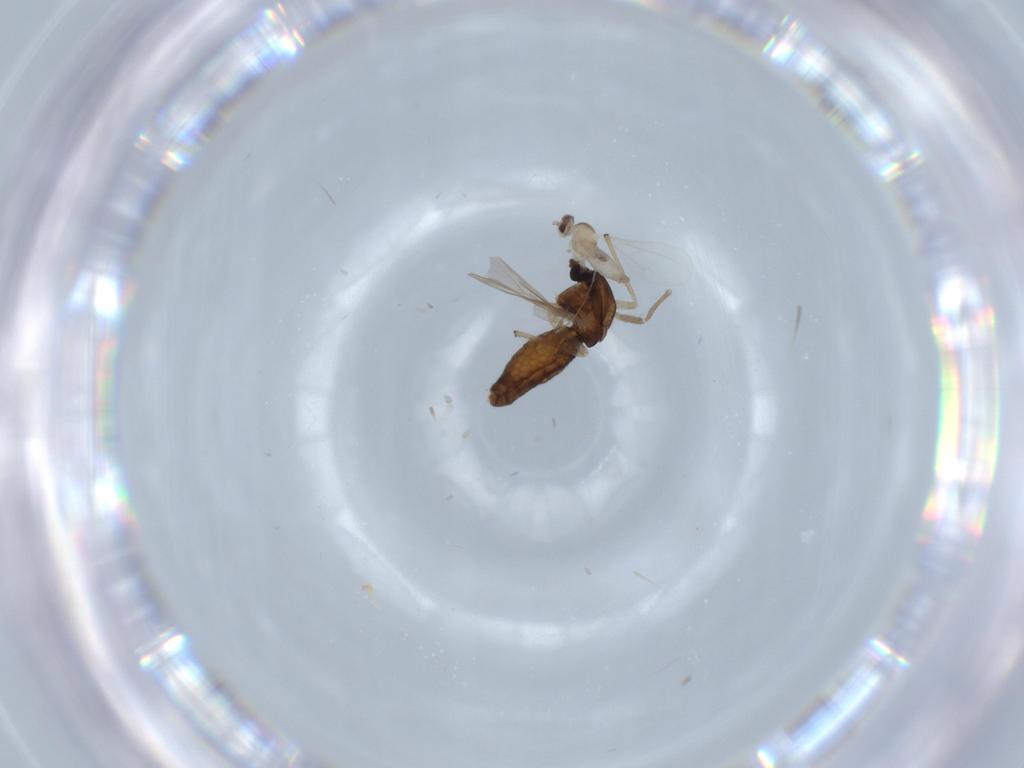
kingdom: Animalia
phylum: Arthropoda
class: Insecta
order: Diptera
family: Chironomidae
